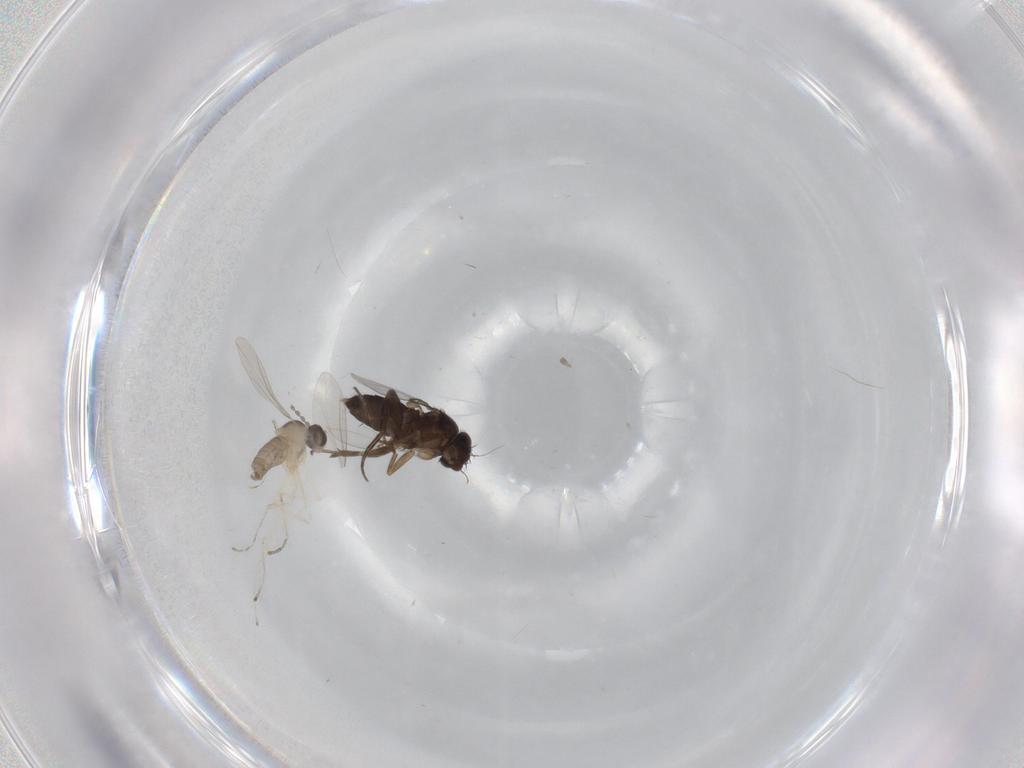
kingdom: Animalia
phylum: Arthropoda
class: Insecta
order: Diptera
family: Phoridae
